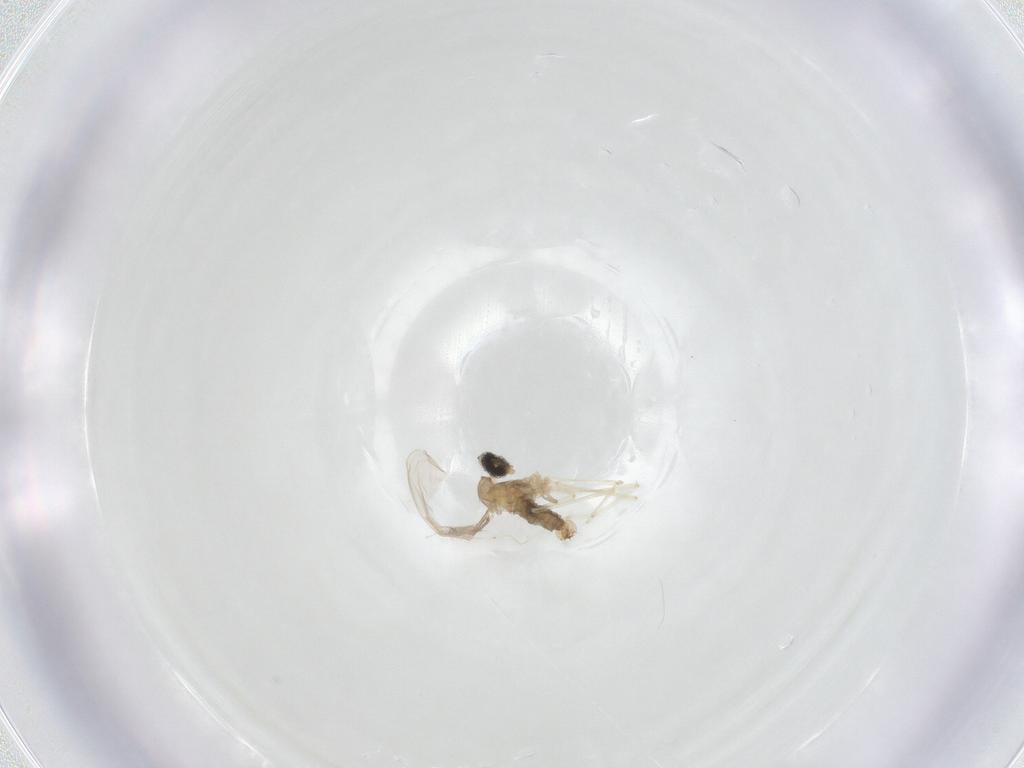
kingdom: Animalia
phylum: Arthropoda
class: Insecta
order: Diptera
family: Cecidomyiidae
